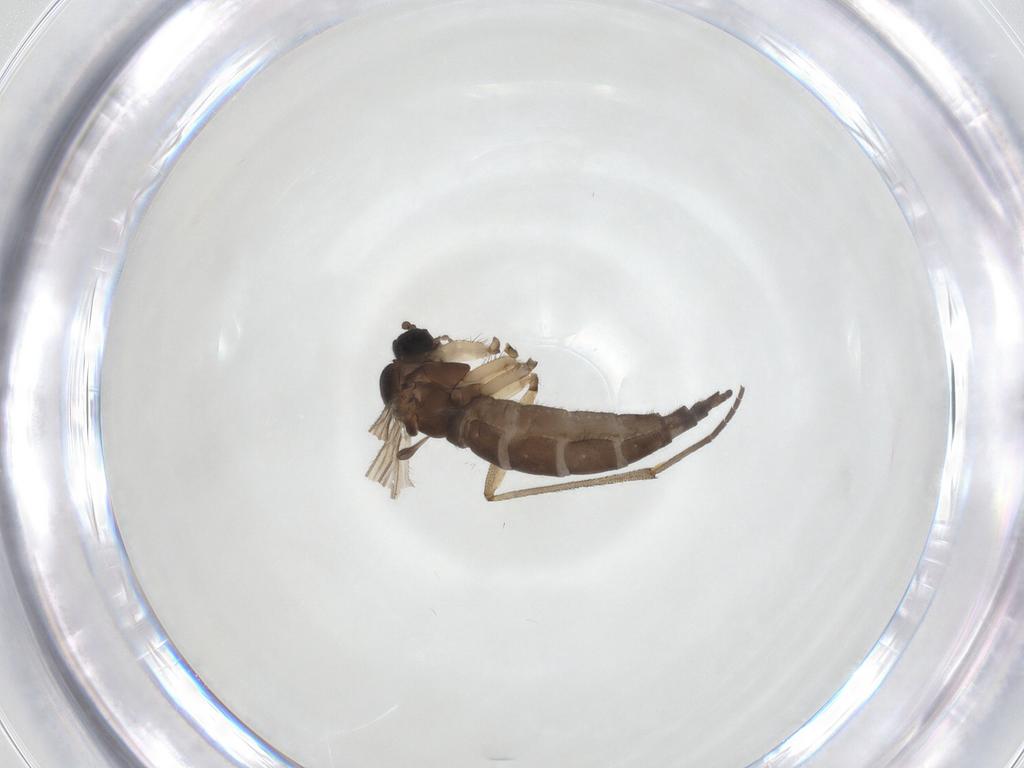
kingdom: Animalia
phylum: Arthropoda
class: Insecta
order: Diptera
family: Sciaridae
